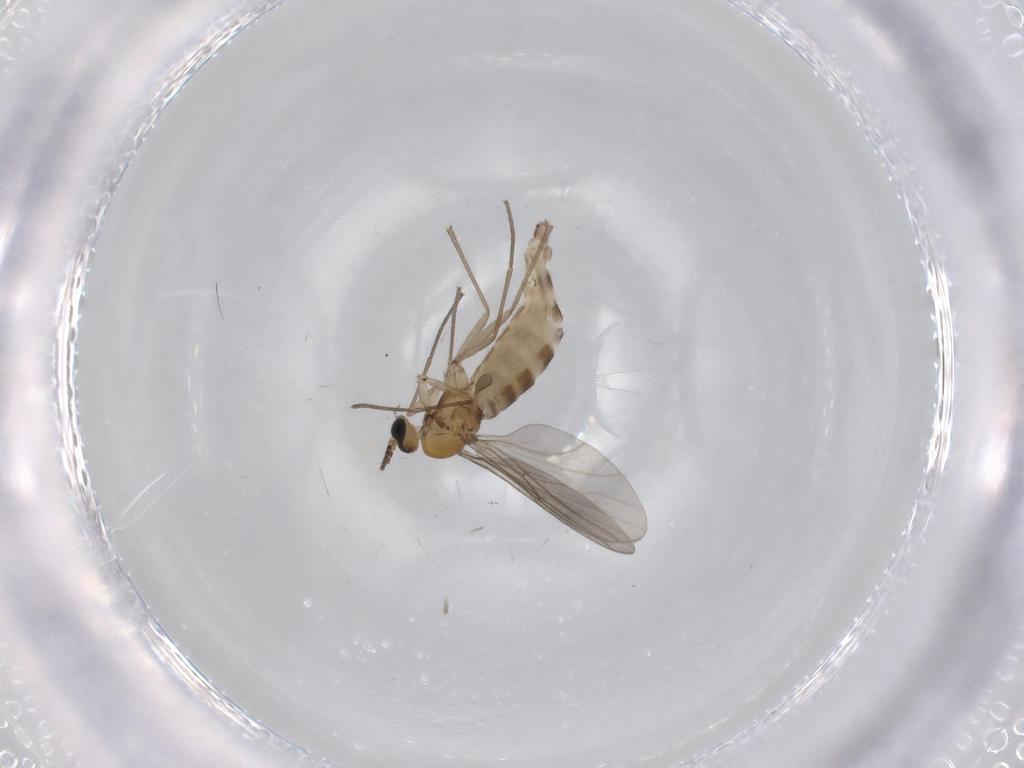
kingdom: Animalia
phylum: Arthropoda
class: Insecta
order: Diptera
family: Sciaridae
